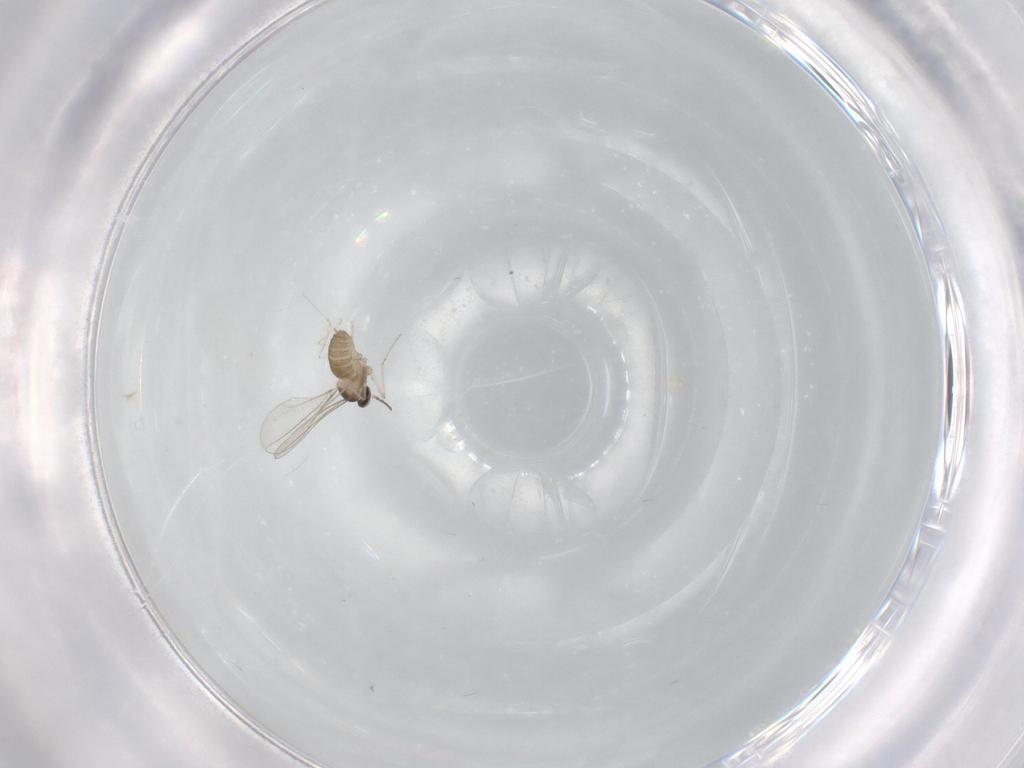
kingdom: Animalia
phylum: Arthropoda
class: Insecta
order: Diptera
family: Cecidomyiidae
